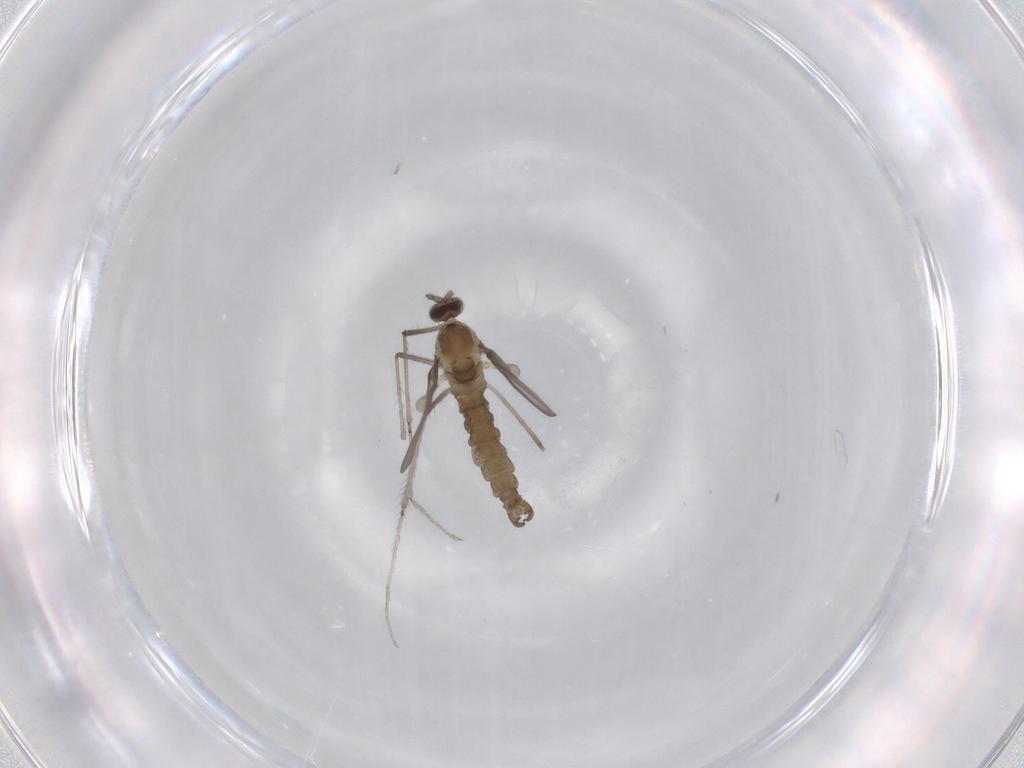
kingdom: Animalia
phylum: Arthropoda
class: Insecta
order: Diptera
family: Cecidomyiidae
